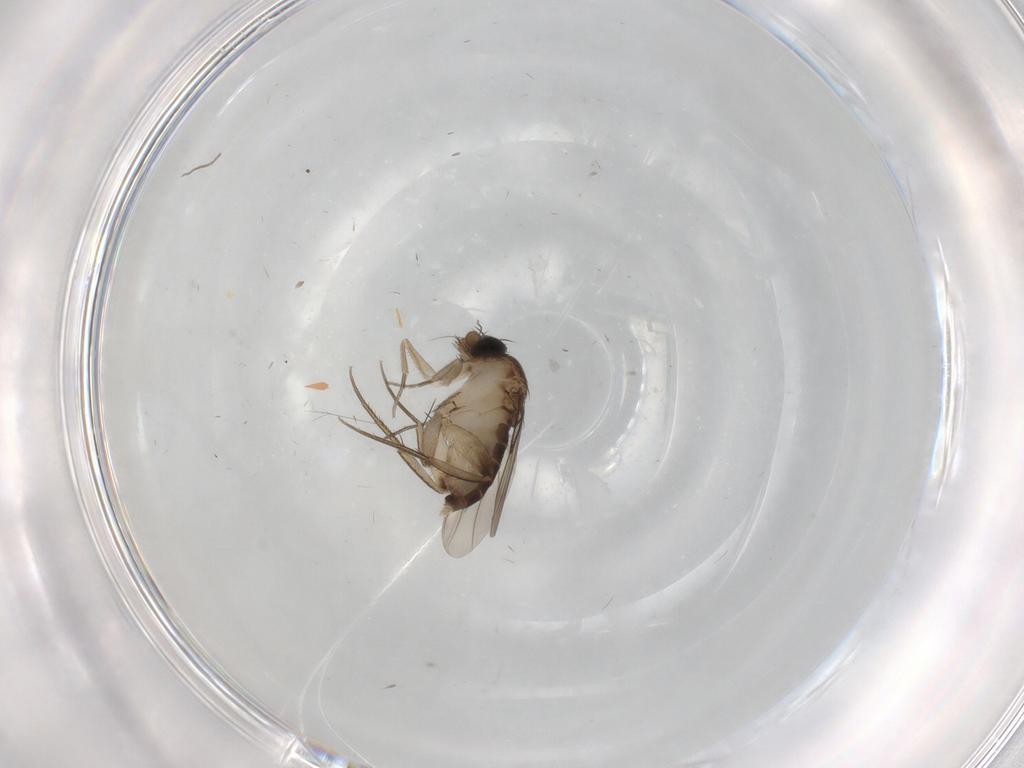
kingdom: Animalia
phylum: Arthropoda
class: Insecta
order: Diptera
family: Phoridae
